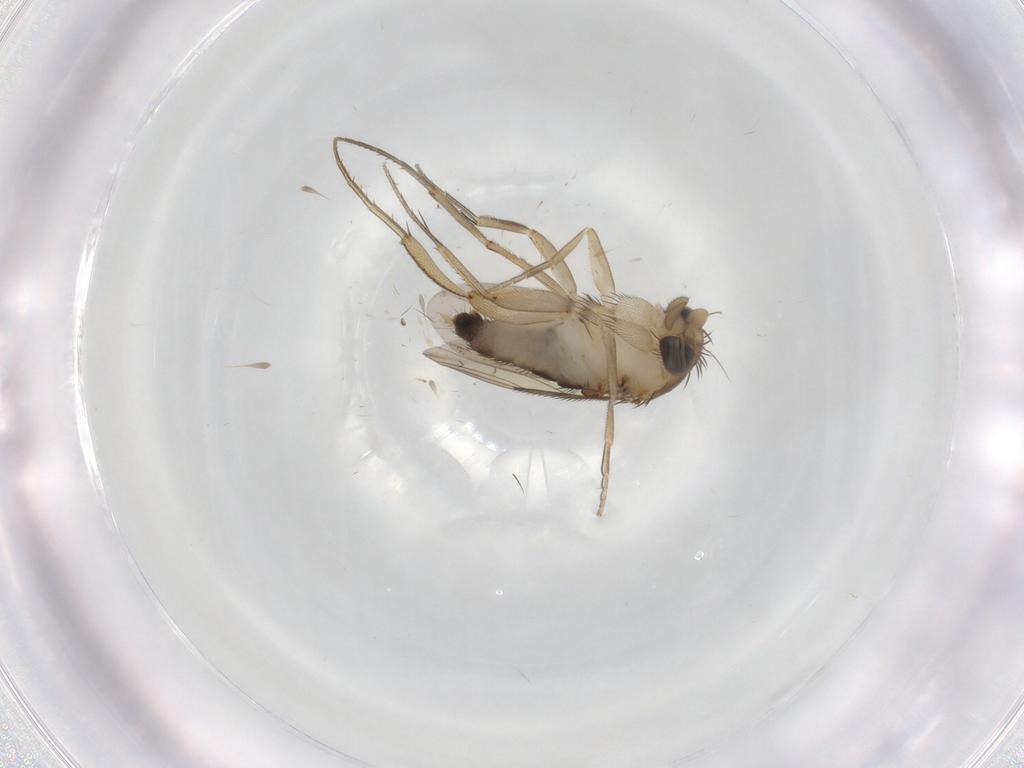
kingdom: Animalia
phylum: Arthropoda
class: Insecta
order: Diptera
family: Phoridae
